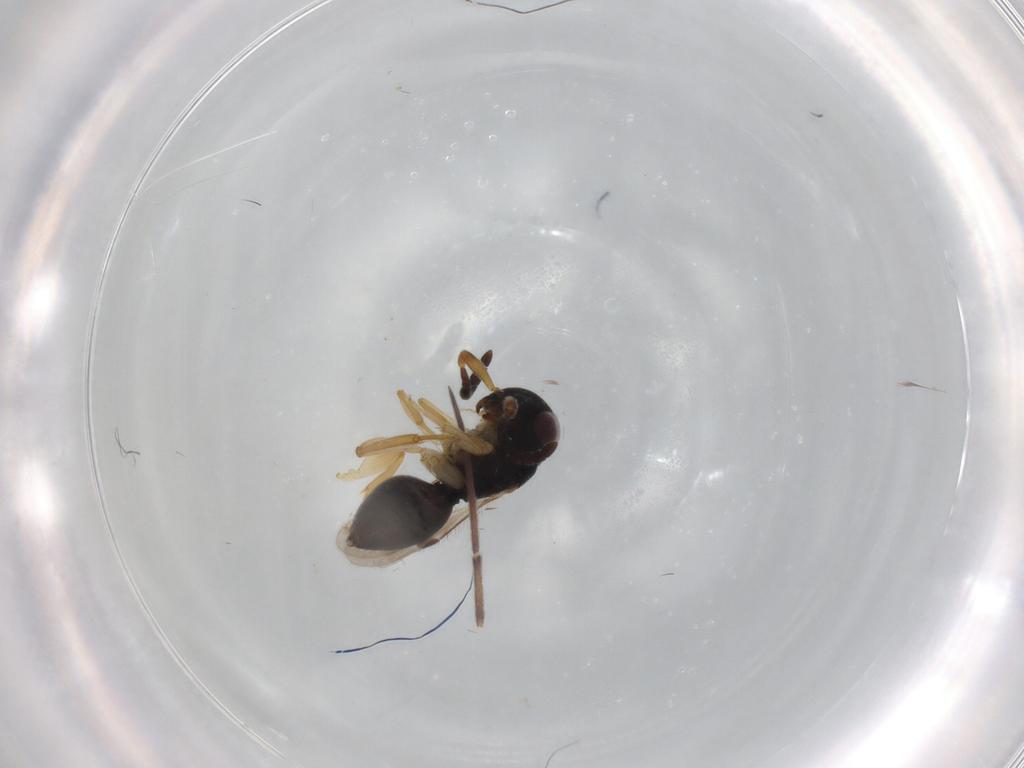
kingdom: Animalia
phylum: Arthropoda
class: Insecta
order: Hymenoptera
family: Eulophidae
